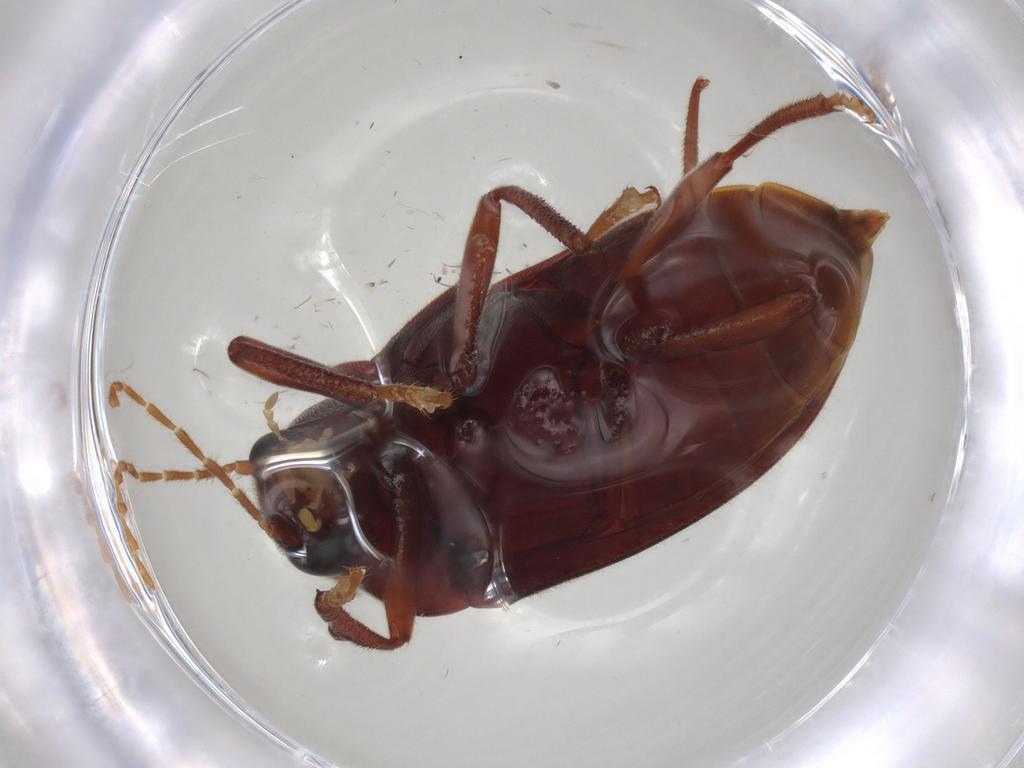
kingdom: Animalia
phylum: Arthropoda
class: Insecta
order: Coleoptera
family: Ptilodactylidae
